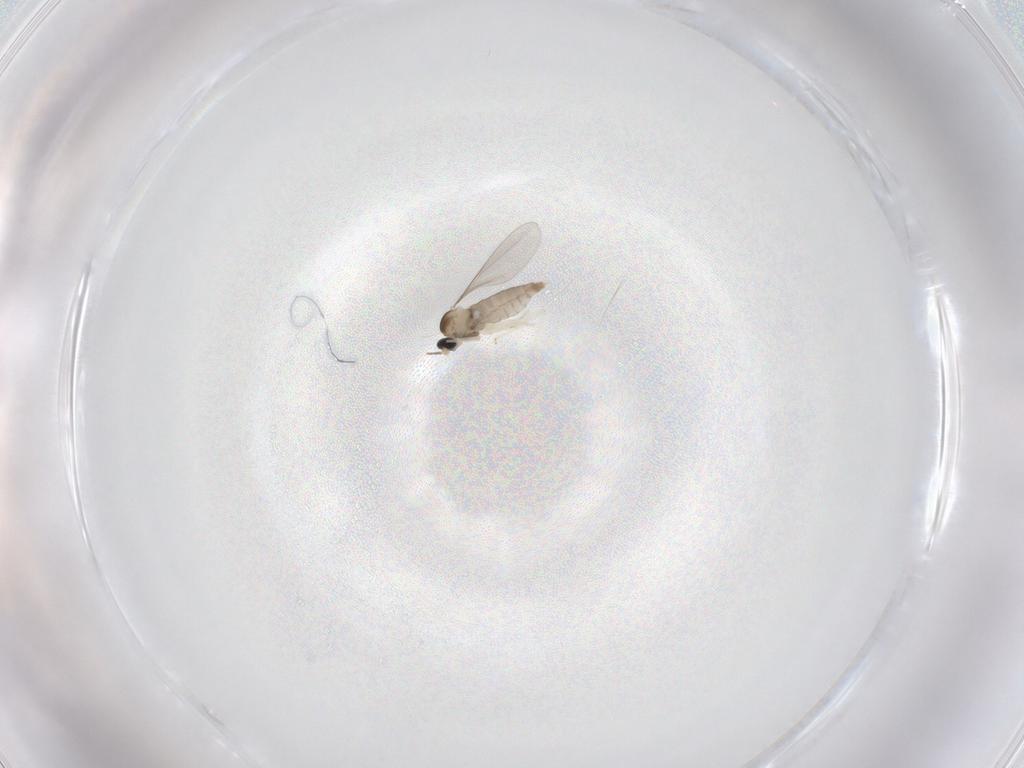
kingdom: Animalia
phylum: Arthropoda
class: Insecta
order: Diptera
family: Ceratopogonidae
